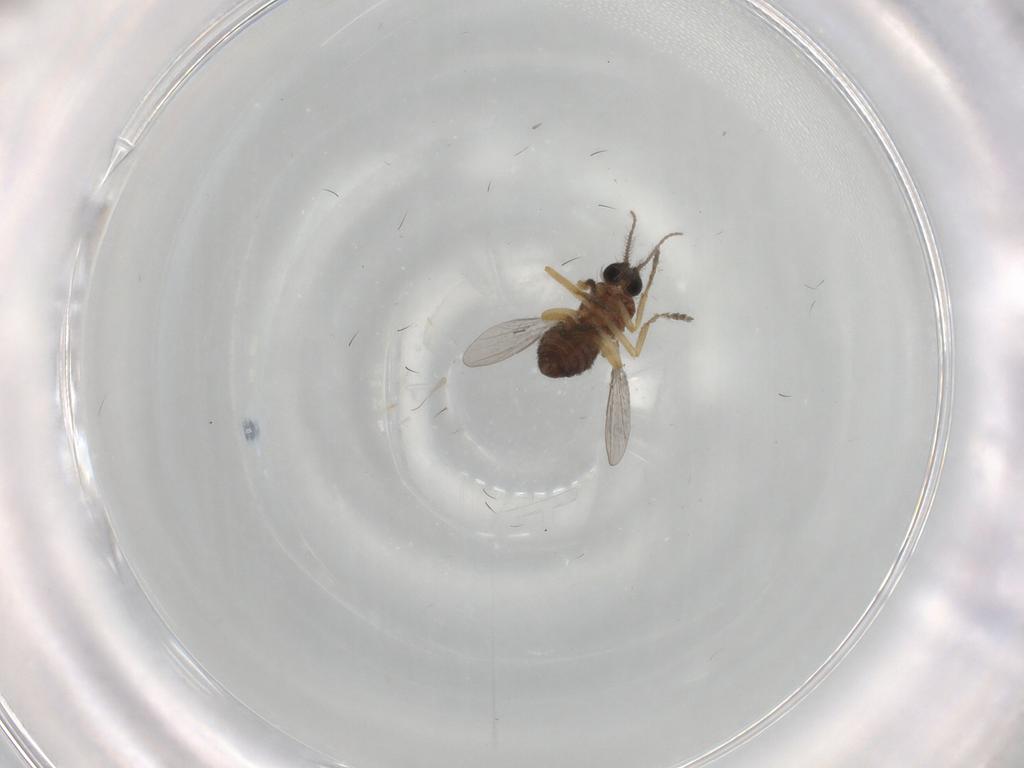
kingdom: Animalia
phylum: Arthropoda
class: Insecta
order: Diptera
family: Ceratopogonidae
